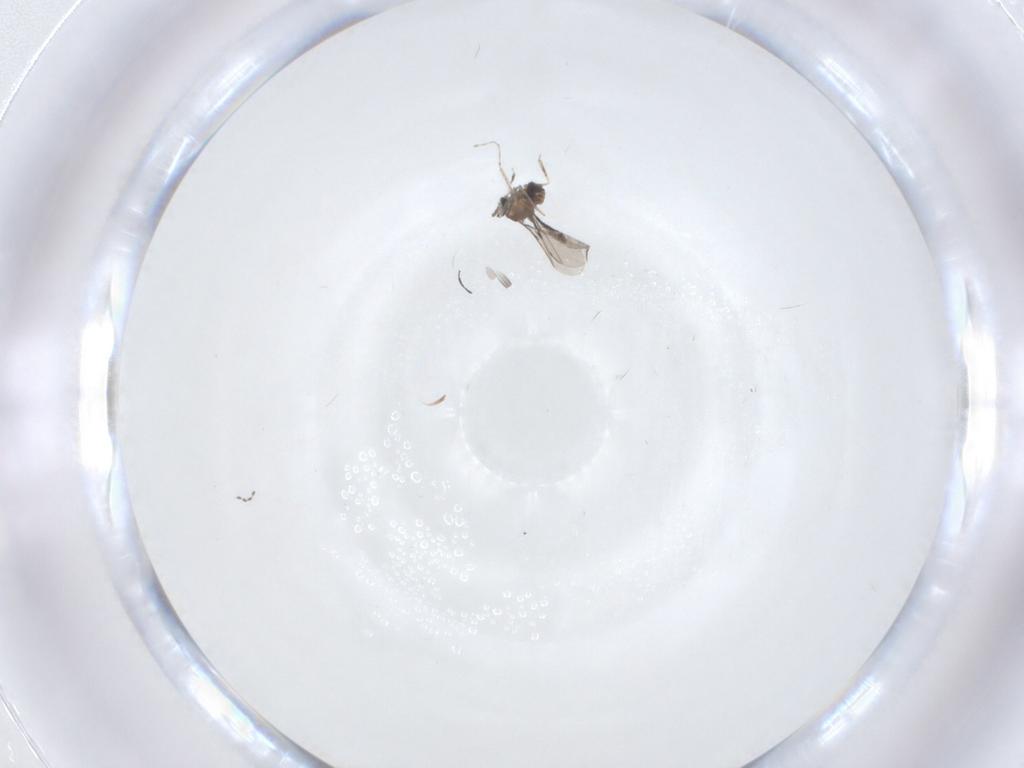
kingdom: Animalia
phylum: Arthropoda
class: Insecta
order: Diptera
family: Cecidomyiidae
